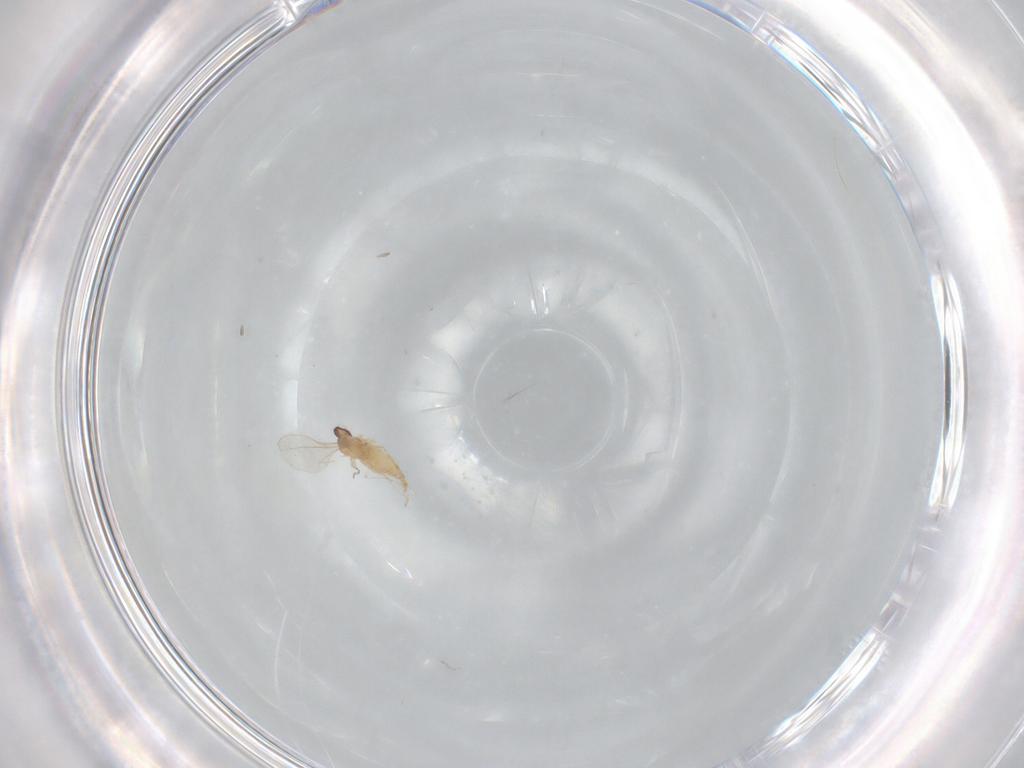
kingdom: Animalia
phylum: Arthropoda
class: Insecta
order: Diptera
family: Cecidomyiidae
